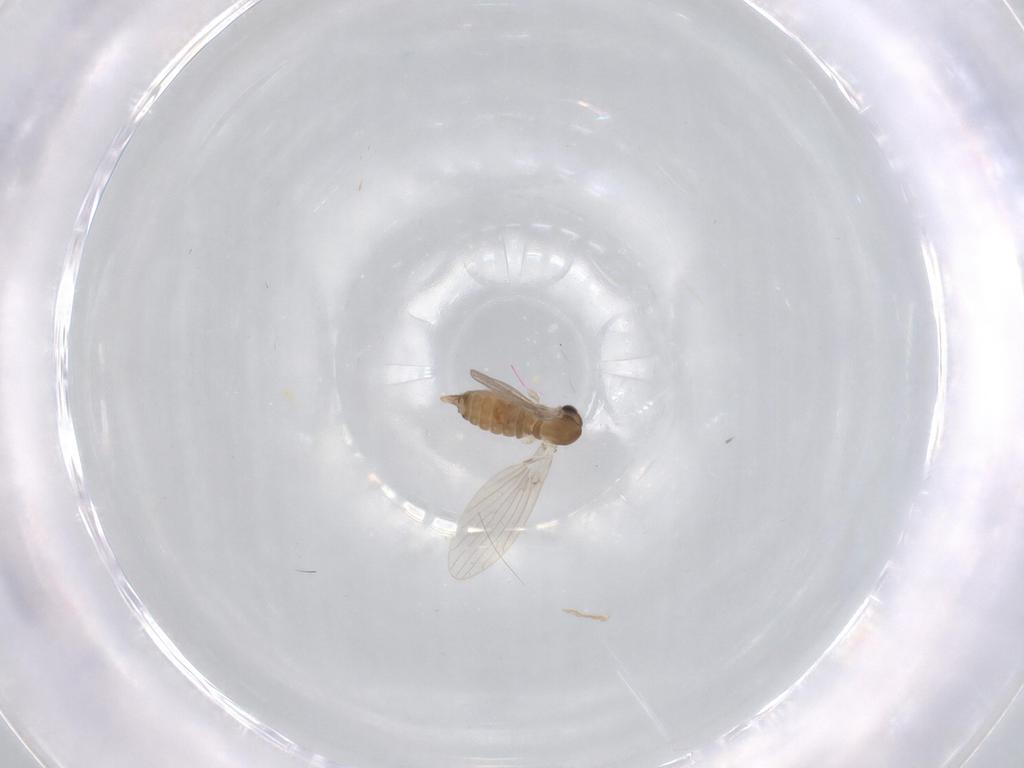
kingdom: Animalia
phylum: Arthropoda
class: Insecta
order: Diptera
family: Psychodidae
